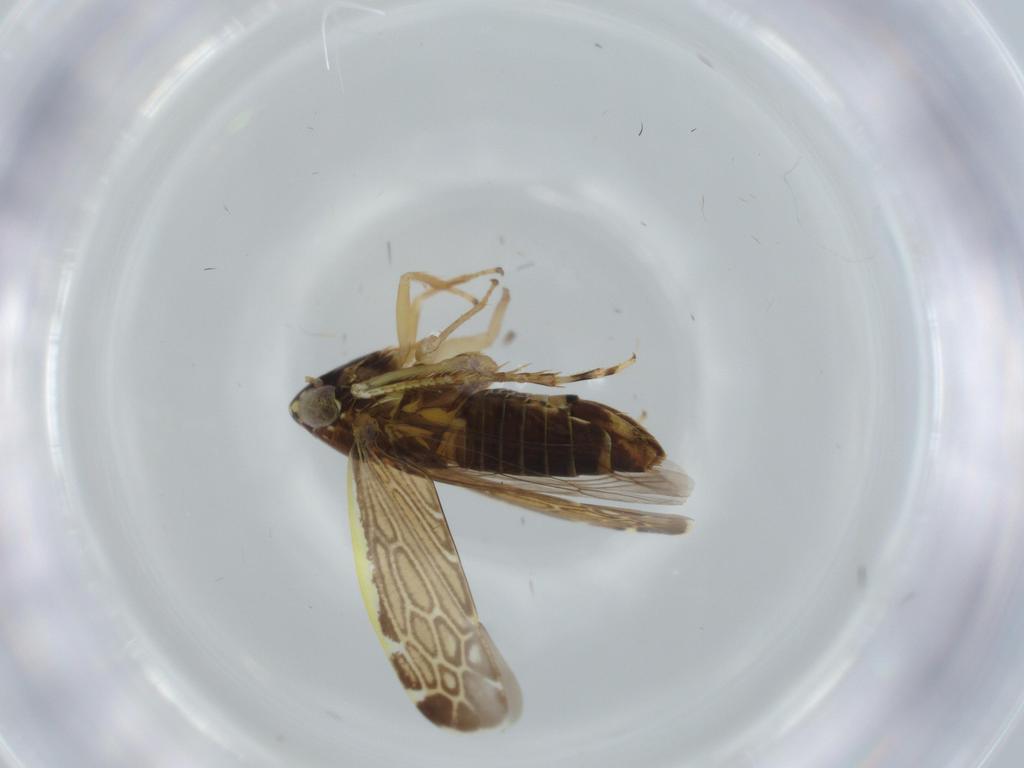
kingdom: Animalia
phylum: Arthropoda
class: Insecta
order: Hemiptera
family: Cicadellidae
